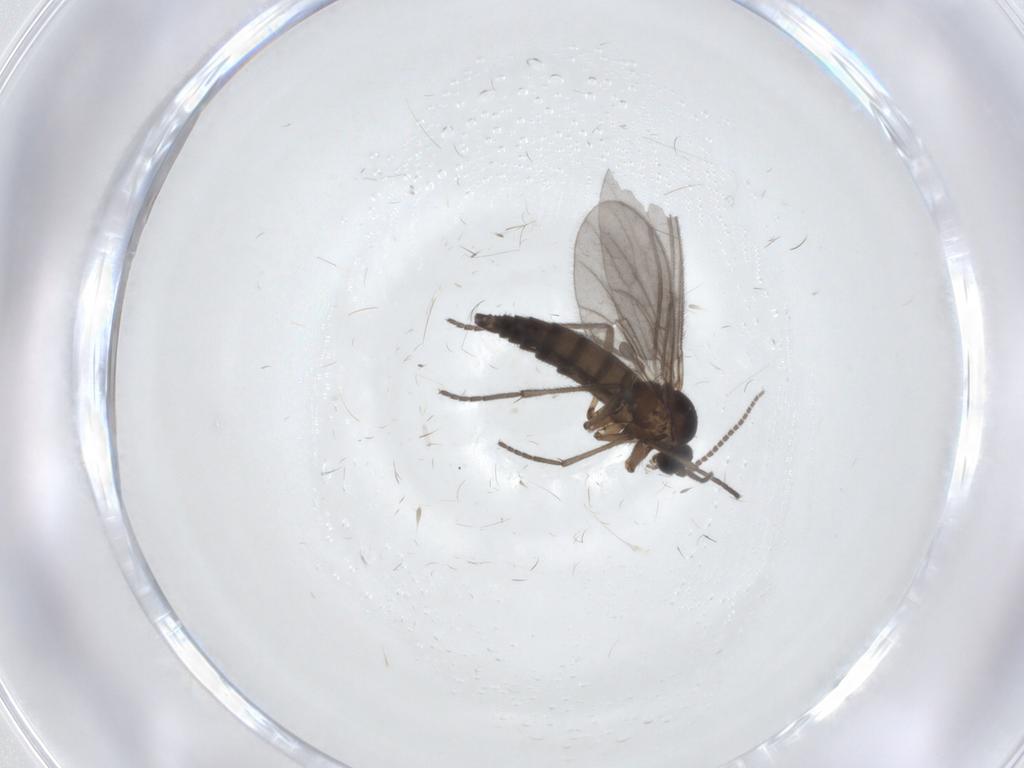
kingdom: Animalia
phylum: Arthropoda
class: Insecta
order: Diptera
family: Sciaridae
